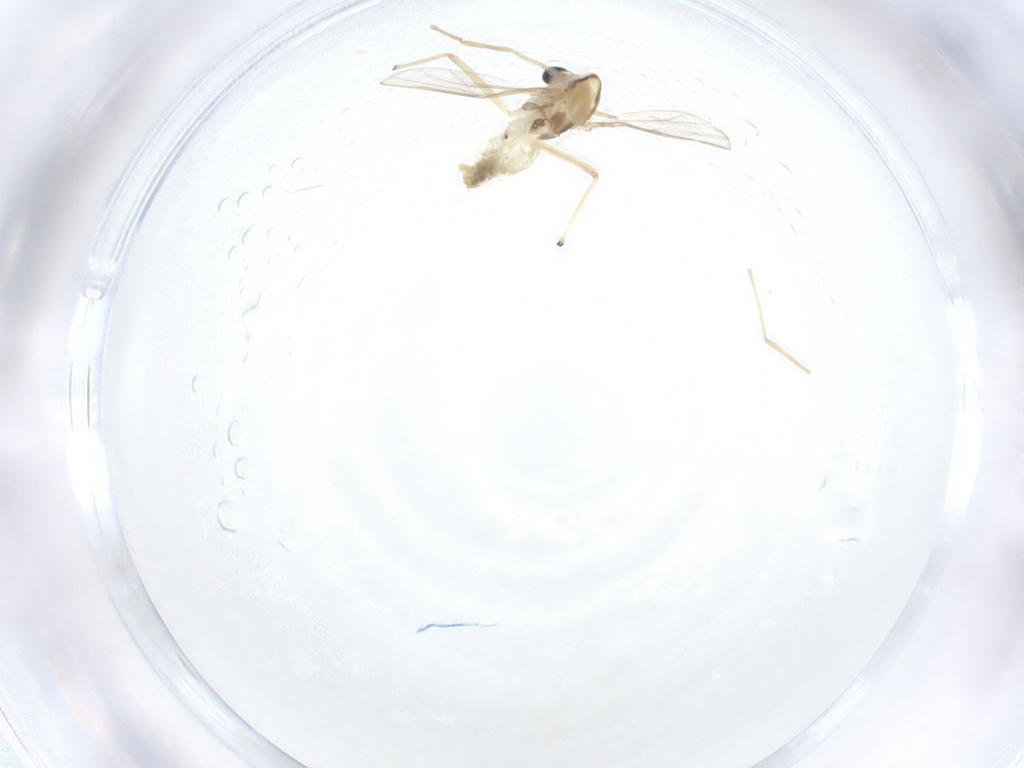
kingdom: Animalia
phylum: Arthropoda
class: Insecta
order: Diptera
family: Chironomidae
